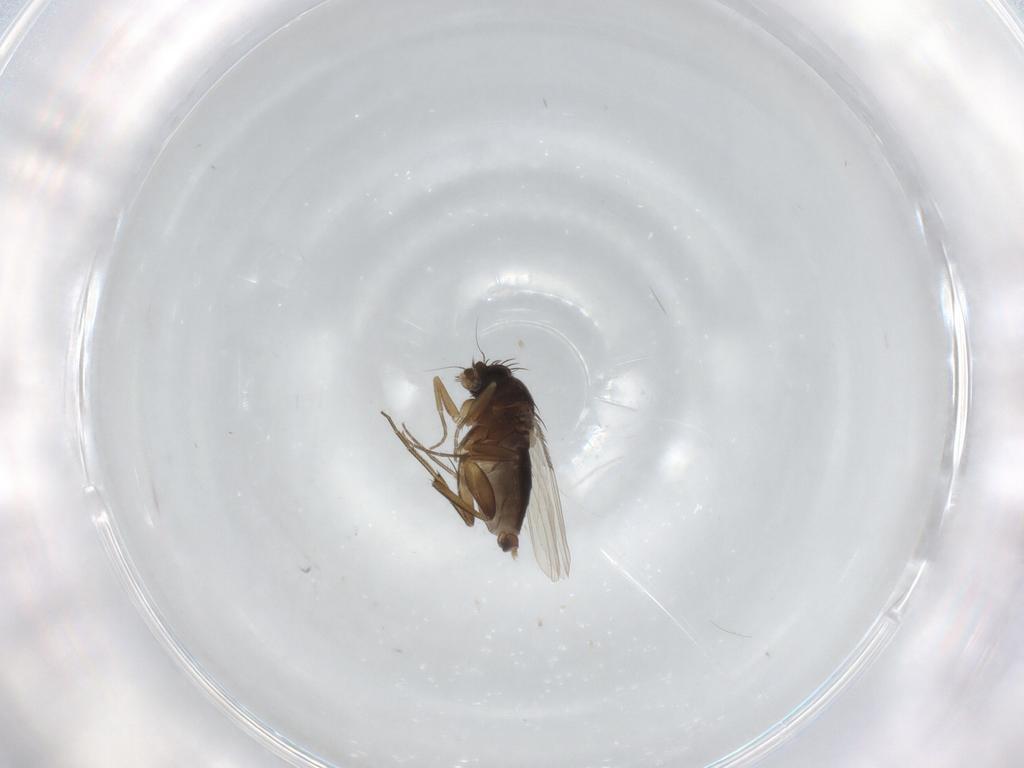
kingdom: Animalia
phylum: Arthropoda
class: Insecta
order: Diptera
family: Phoridae
